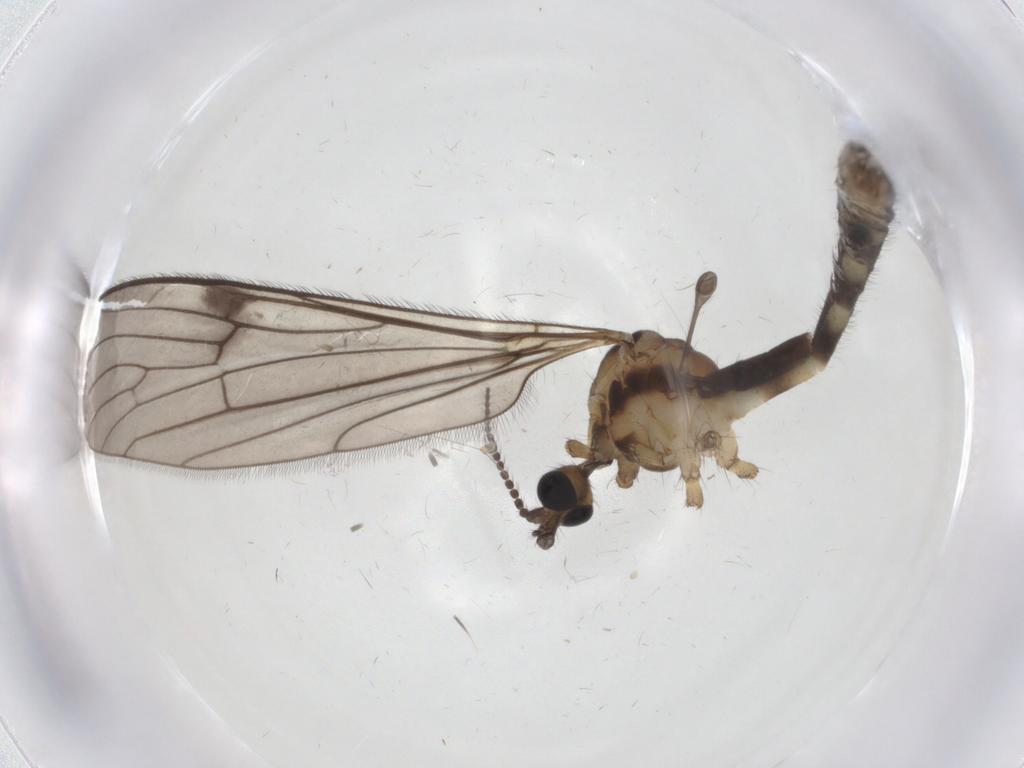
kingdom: Animalia
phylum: Arthropoda
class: Insecta
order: Diptera
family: Limoniidae
